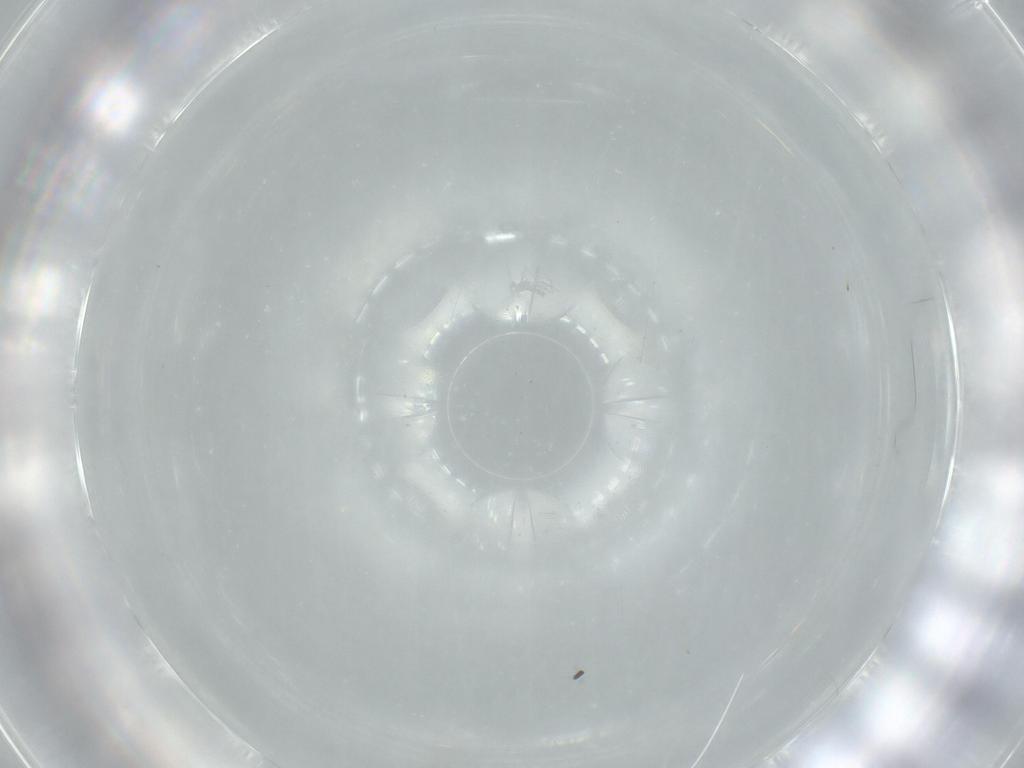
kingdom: Animalia
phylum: Arthropoda
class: Insecta
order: Diptera
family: Cecidomyiidae
